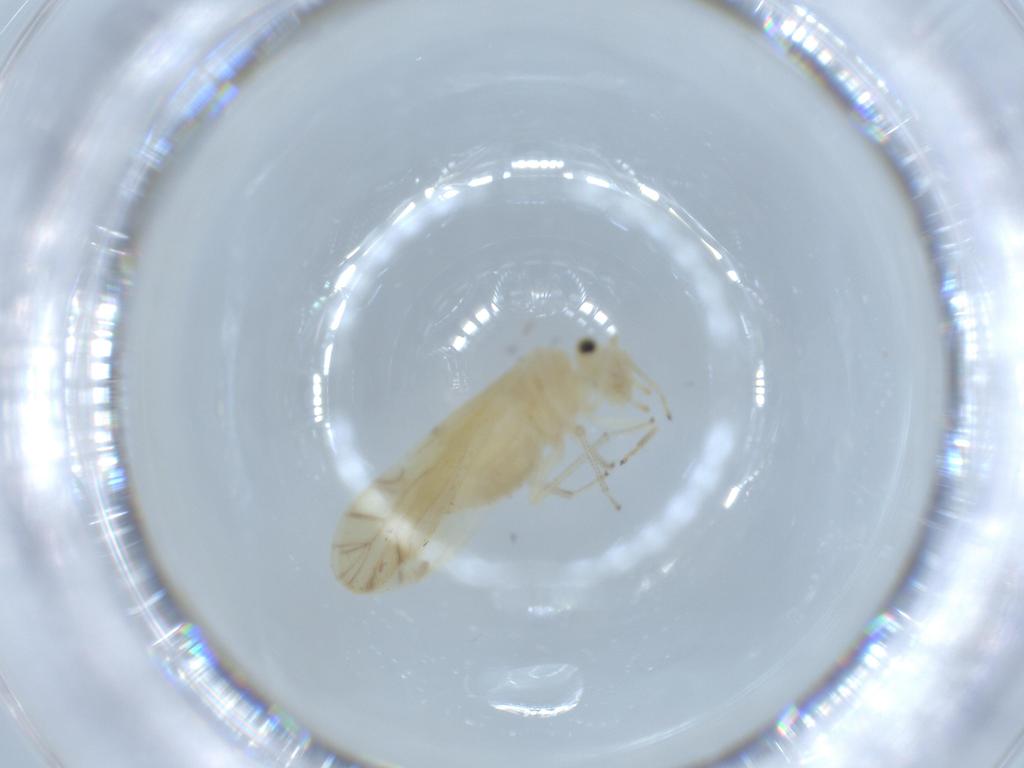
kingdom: Animalia
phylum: Arthropoda
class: Insecta
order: Psocodea
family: Caeciliusidae
